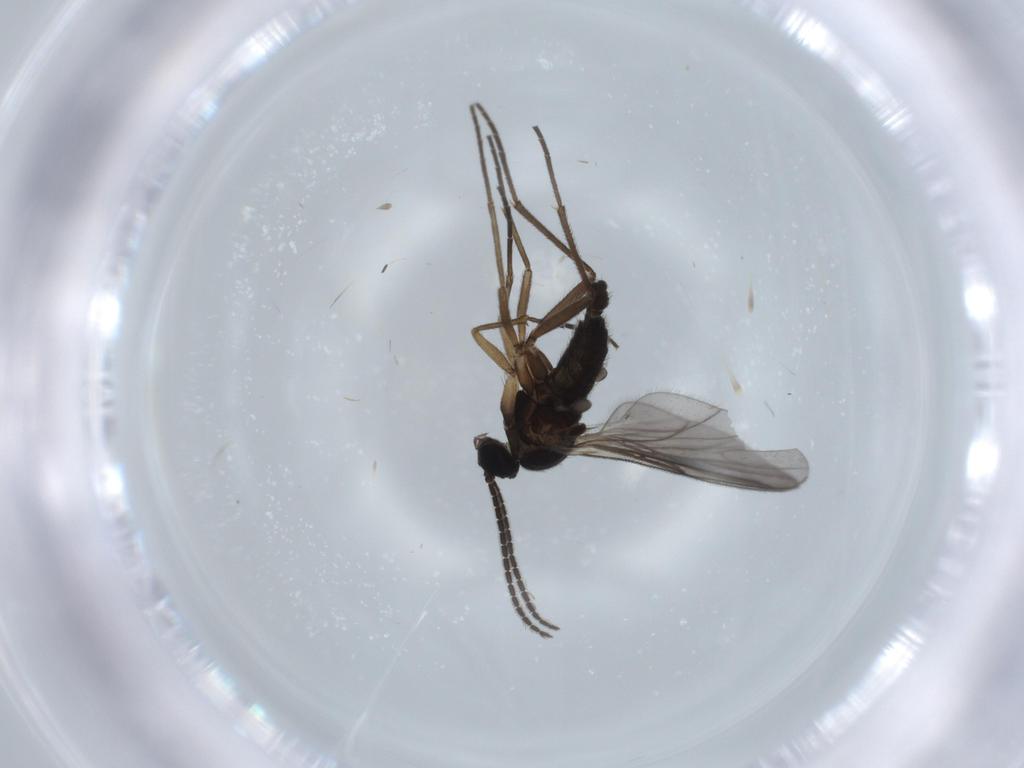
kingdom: Animalia
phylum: Arthropoda
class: Insecta
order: Diptera
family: Sciaridae
